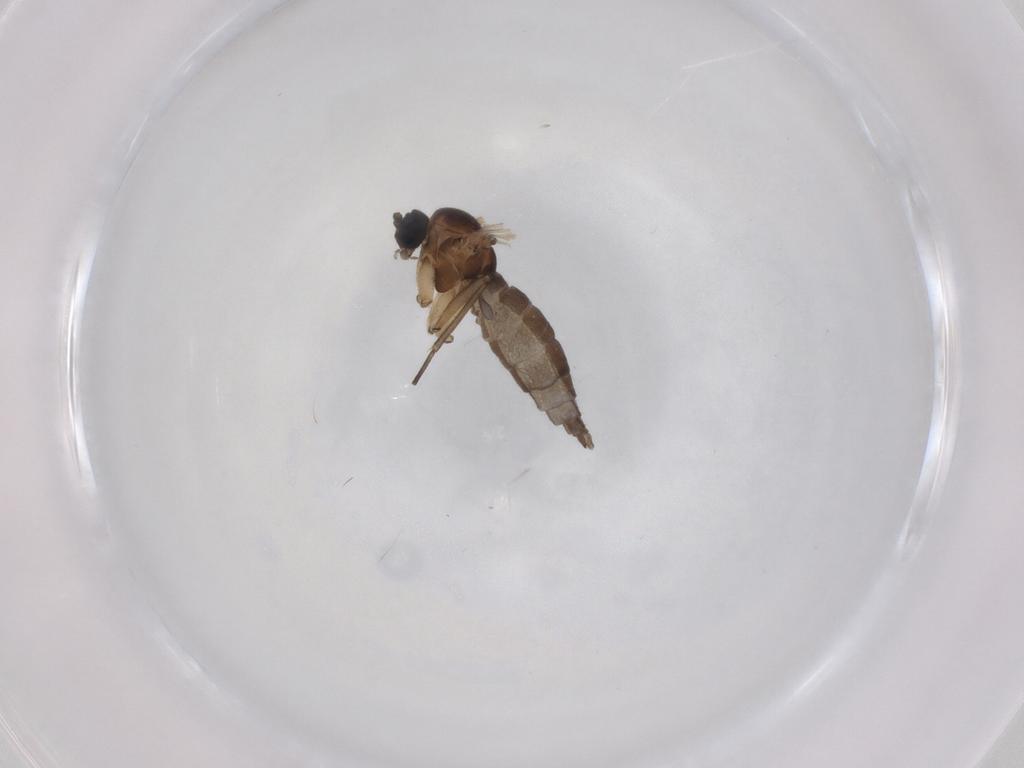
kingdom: Animalia
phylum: Arthropoda
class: Insecta
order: Diptera
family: Sciaridae
